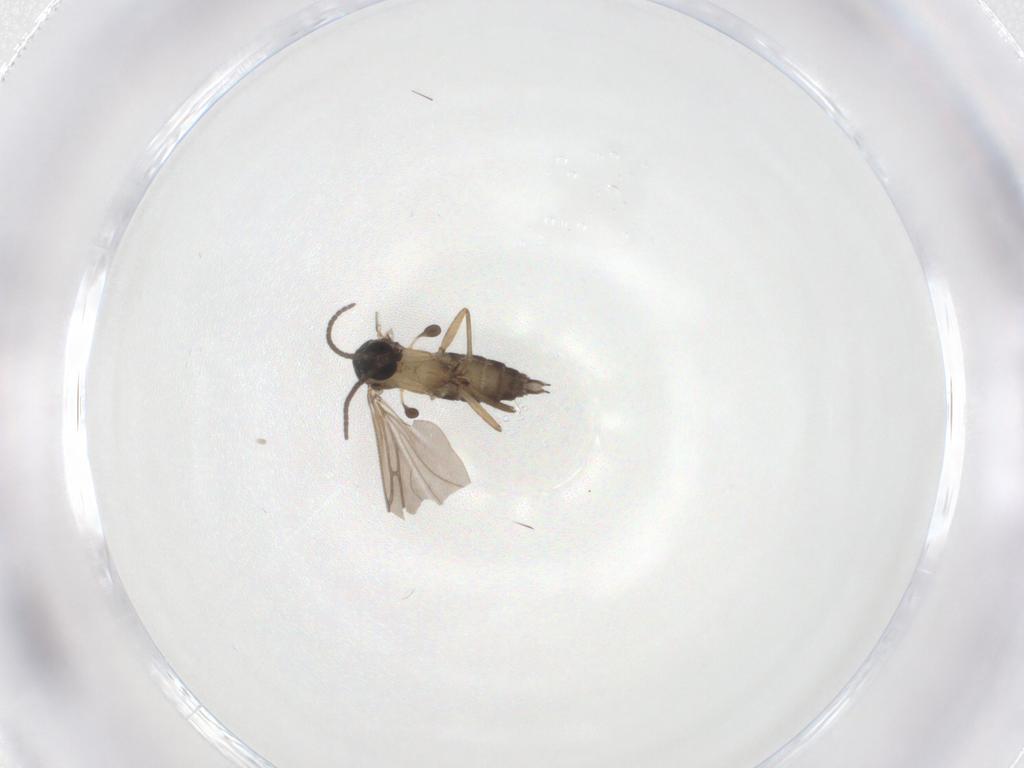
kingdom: Animalia
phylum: Arthropoda
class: Insecta
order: Diptera
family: Sciaridae
